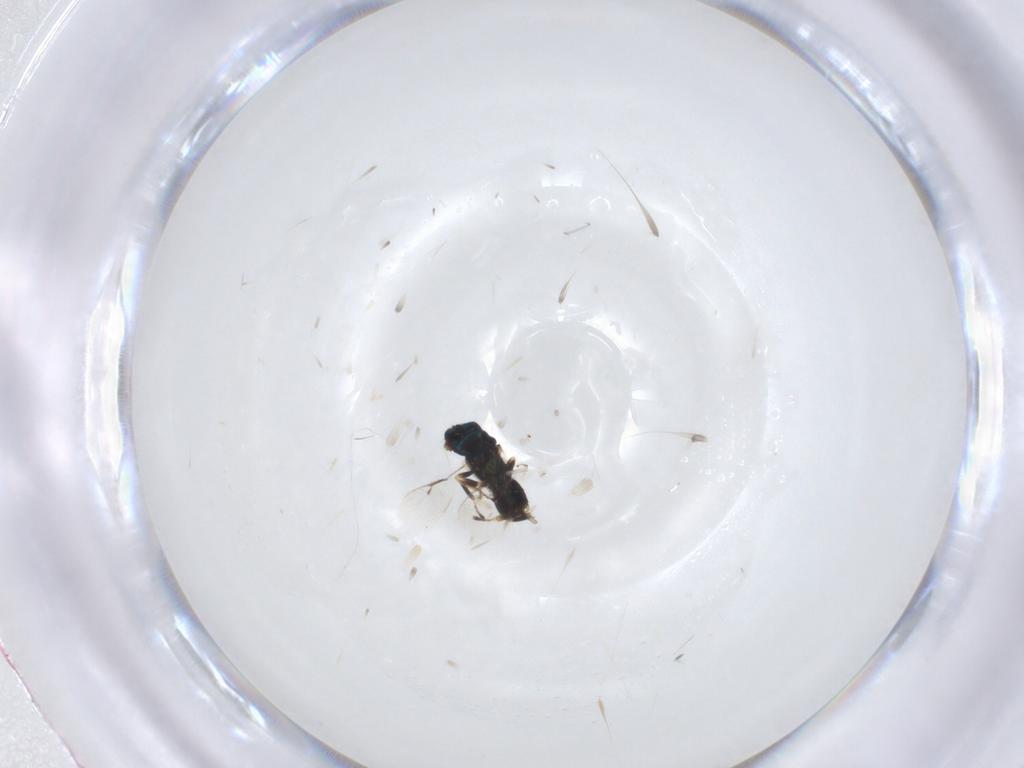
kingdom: Animalia
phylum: Arthropoda
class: Insecta
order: Hymenoptera
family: Eulophidae
